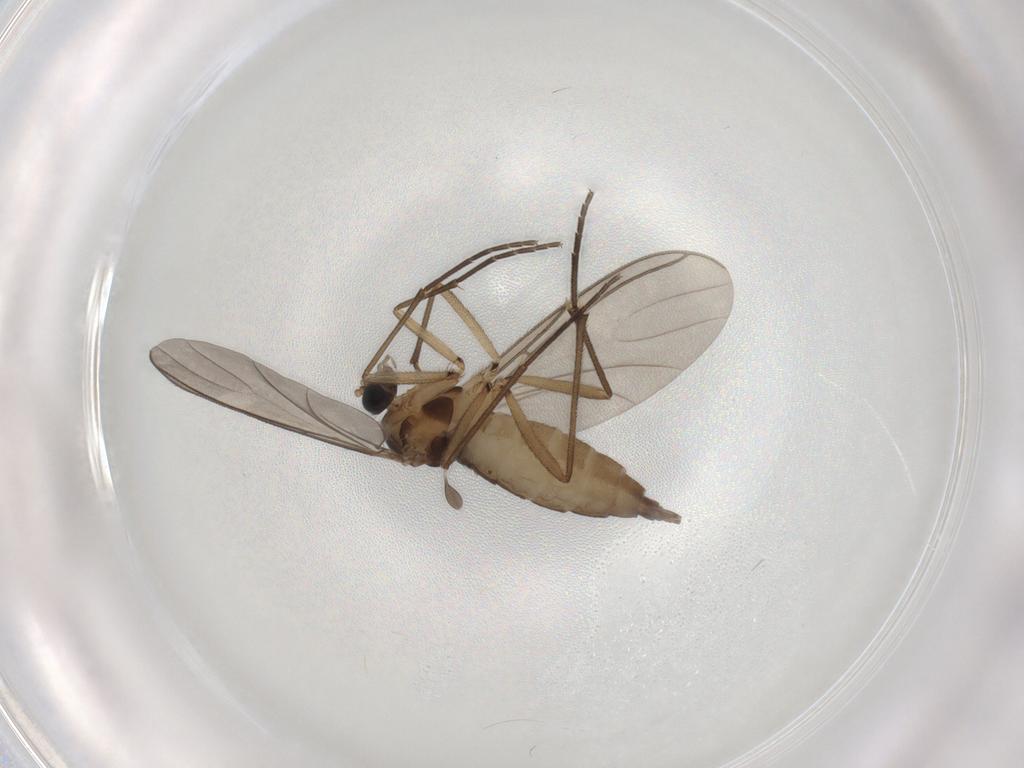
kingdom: Animalia
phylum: Arthropoda
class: Insecta
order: Diptera
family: Sciaridae
